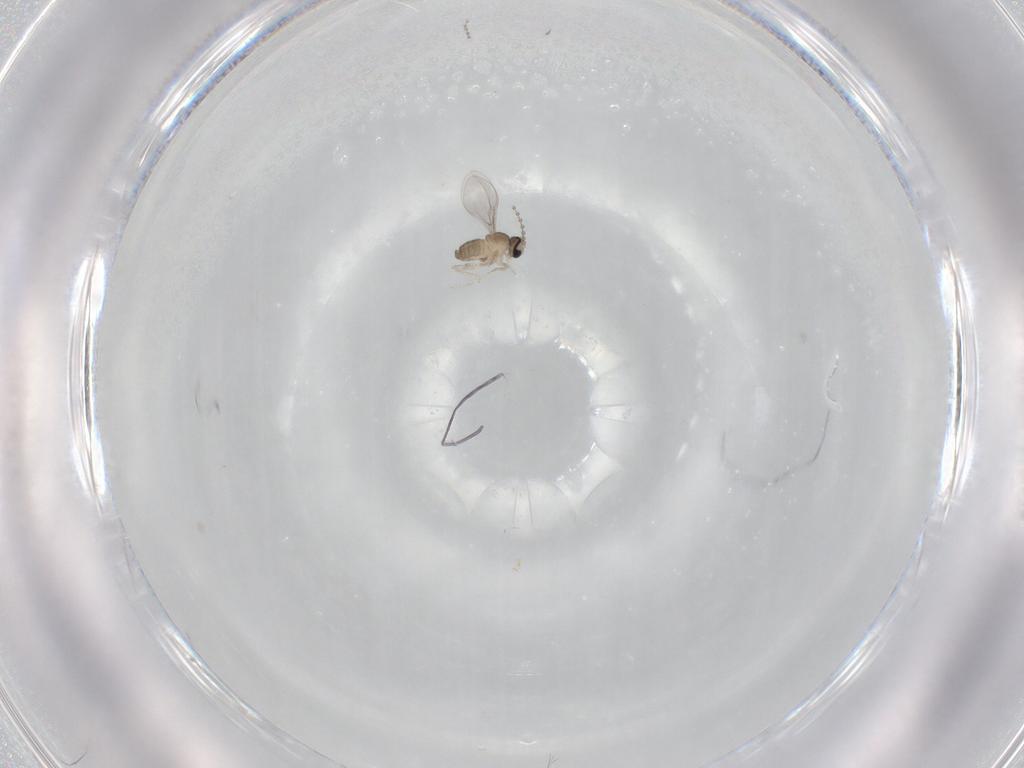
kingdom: Animalia
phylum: Arthropoda
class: Insecta
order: Diptera
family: Cecidomyiidae
